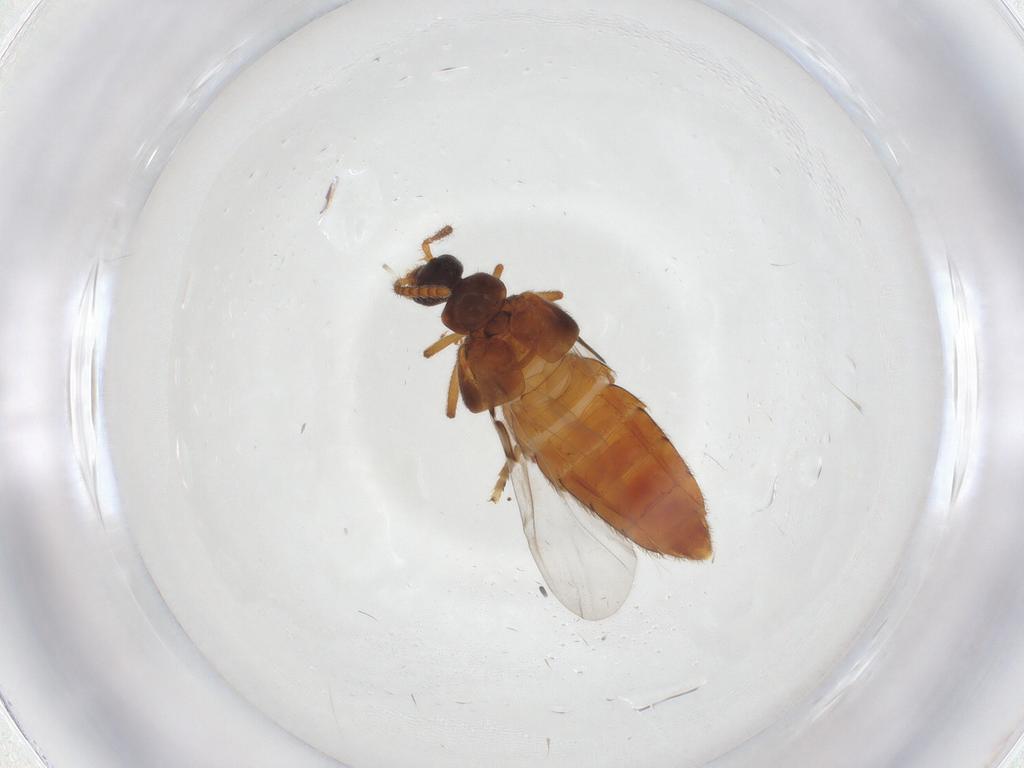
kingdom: Animalia
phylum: Arthropoda
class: Insecta
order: Coleoptera
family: Staphylinidae
